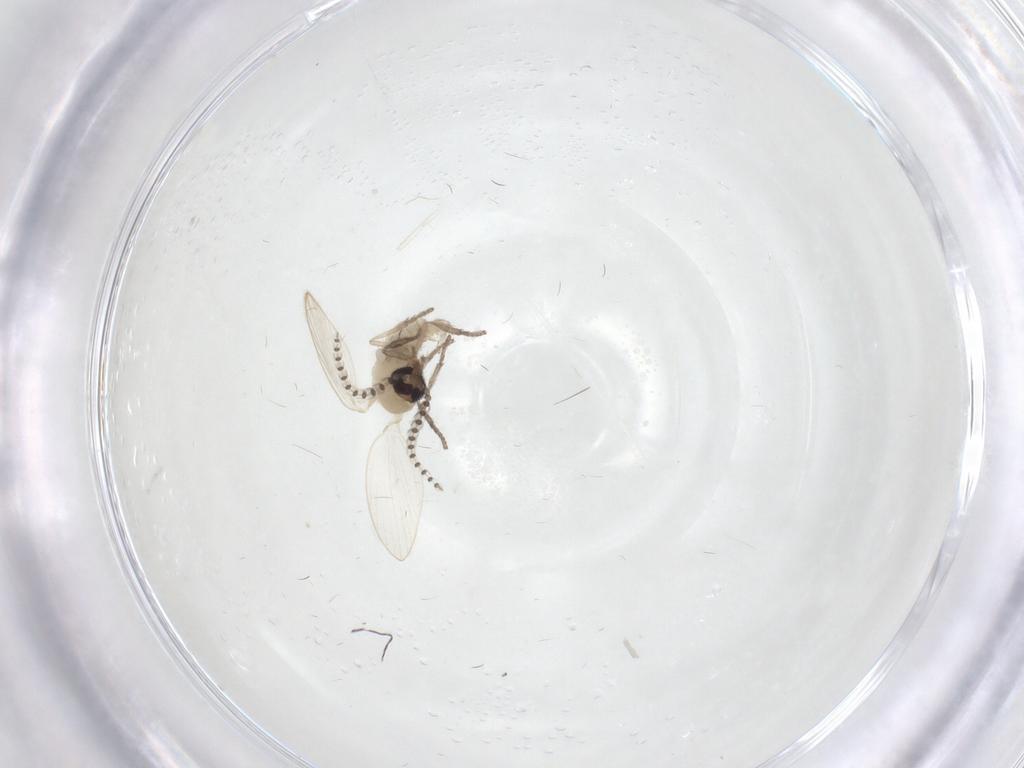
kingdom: Animalia
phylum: Arthropoda
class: Insecta
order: Diptera
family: Psychodidae
